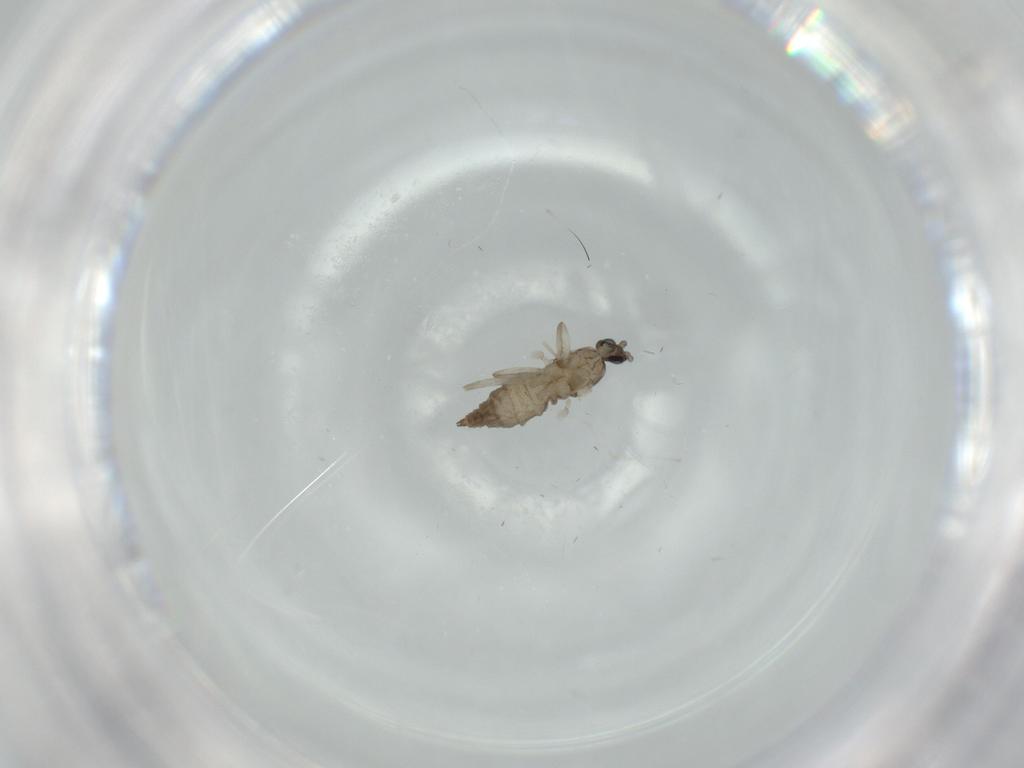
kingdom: Animalia
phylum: Arthropoda
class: Insecta
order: Diptera
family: Cecidomyiidae
